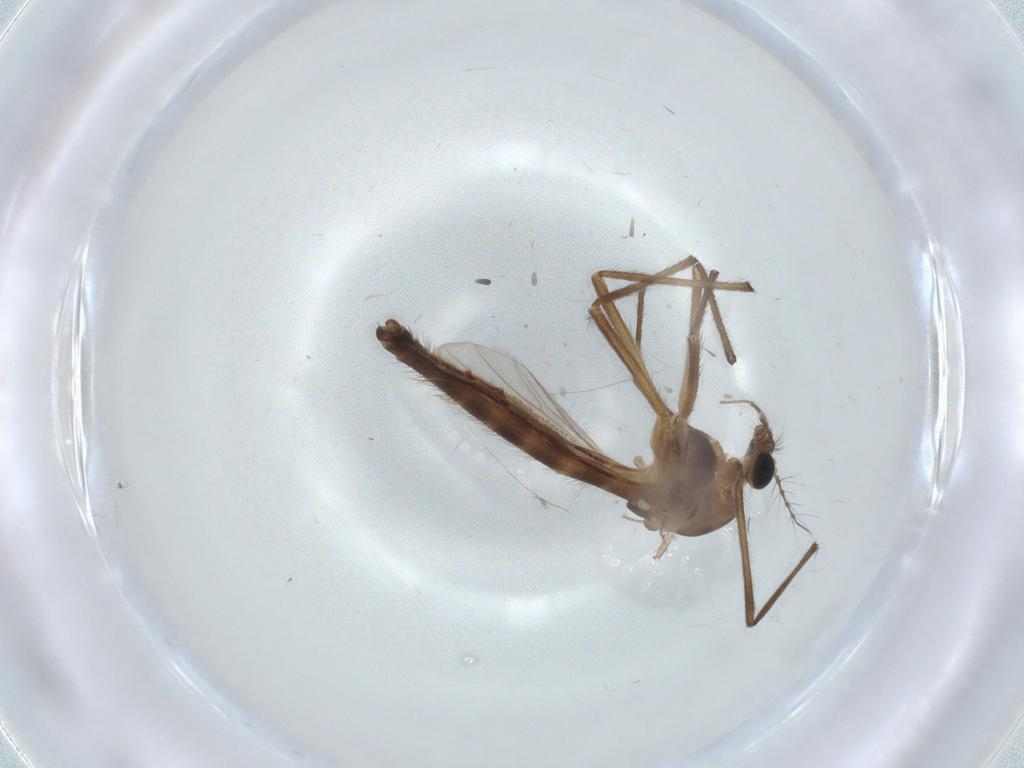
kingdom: Animalia
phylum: Arthropoda
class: Insecta
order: Diptera
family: Chironomidae
